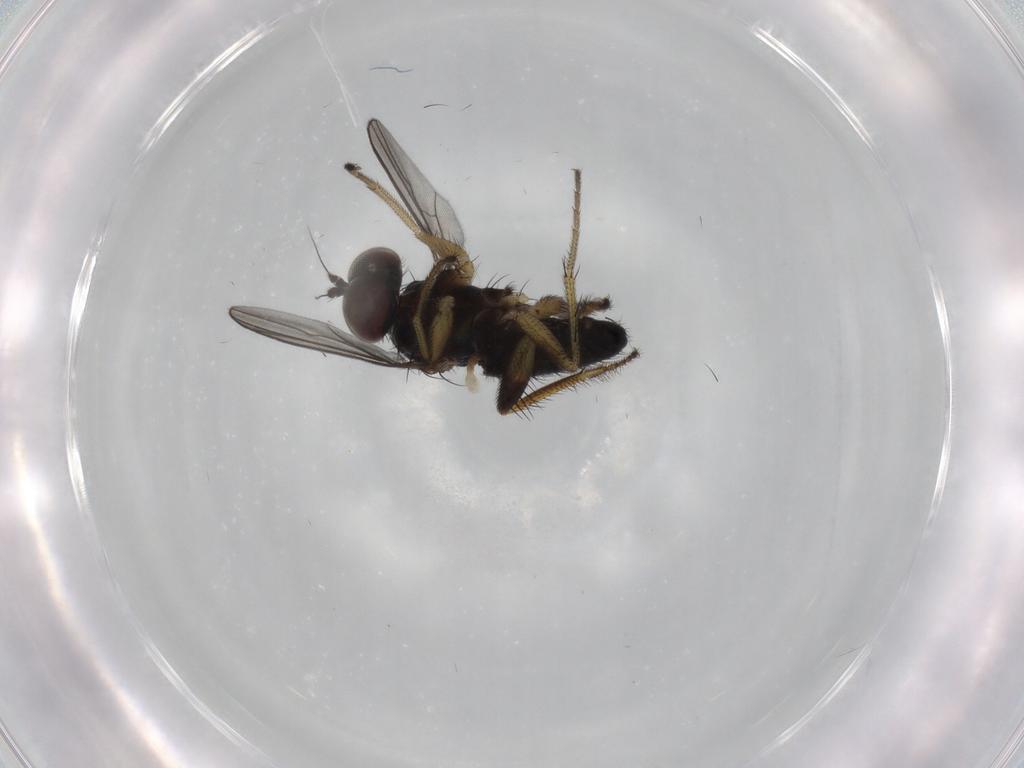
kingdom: Animalia
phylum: Arthropoda
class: Insecta
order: Diptera
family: Dolichopodidae
